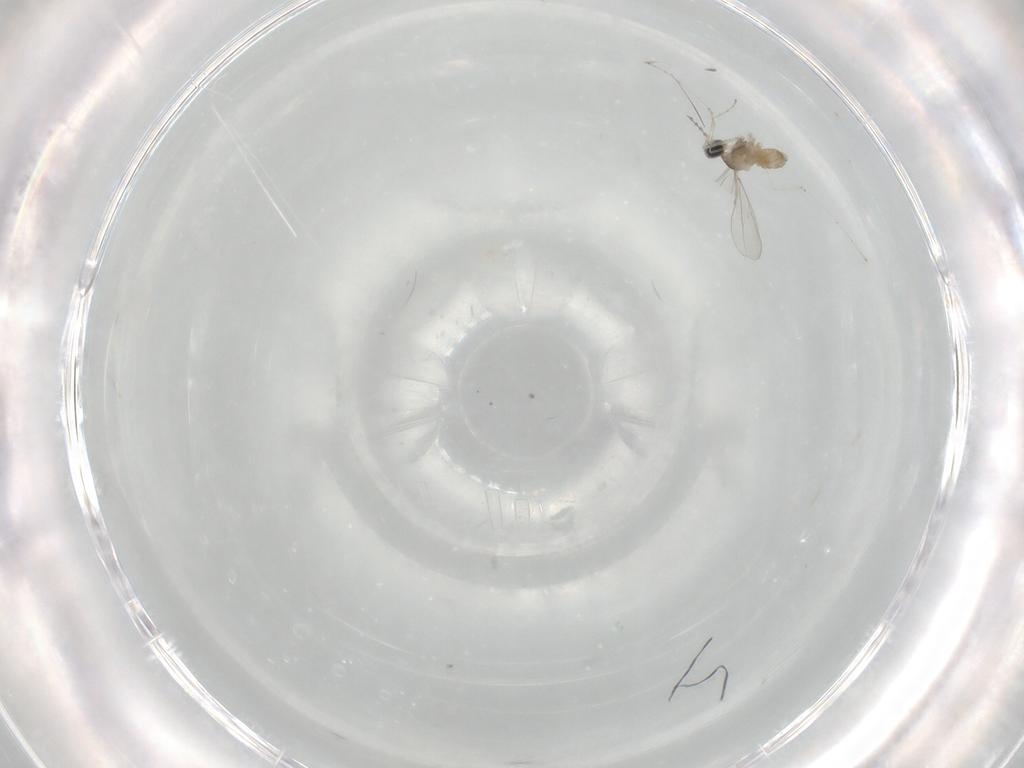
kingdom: Animalia
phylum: Arthropoda
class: Insecta
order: Diptera
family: Cecidomyiidae
